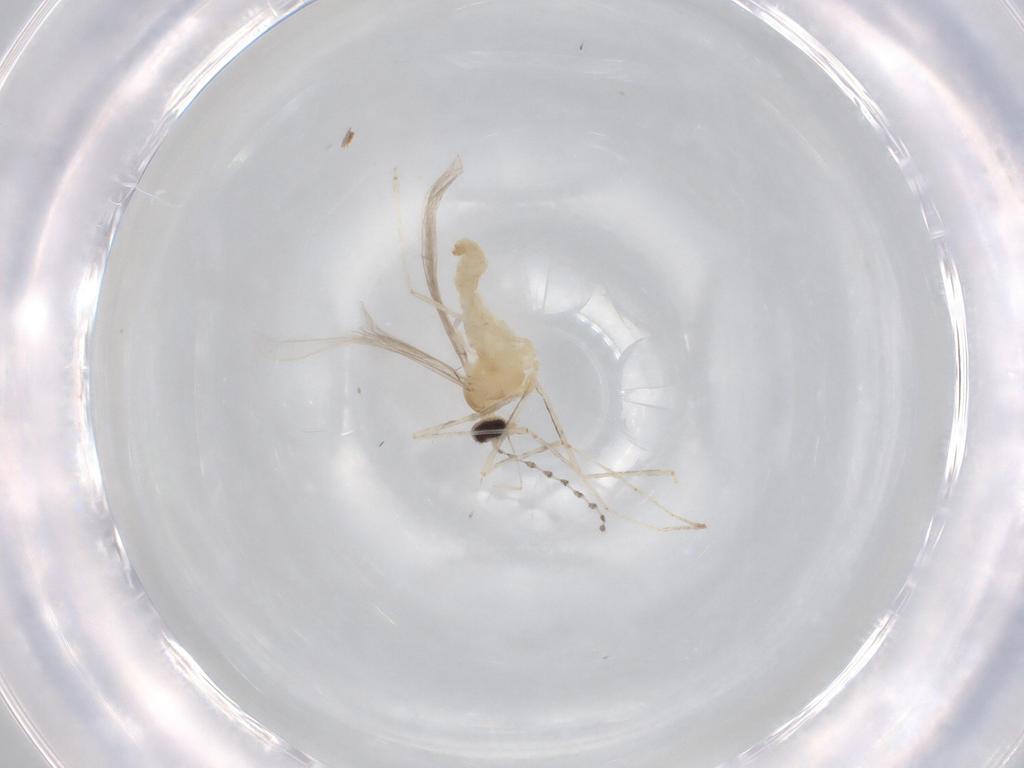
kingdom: Animalia
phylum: Arthropoda
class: Insecta
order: Diptera
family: Cecidomyiidae
